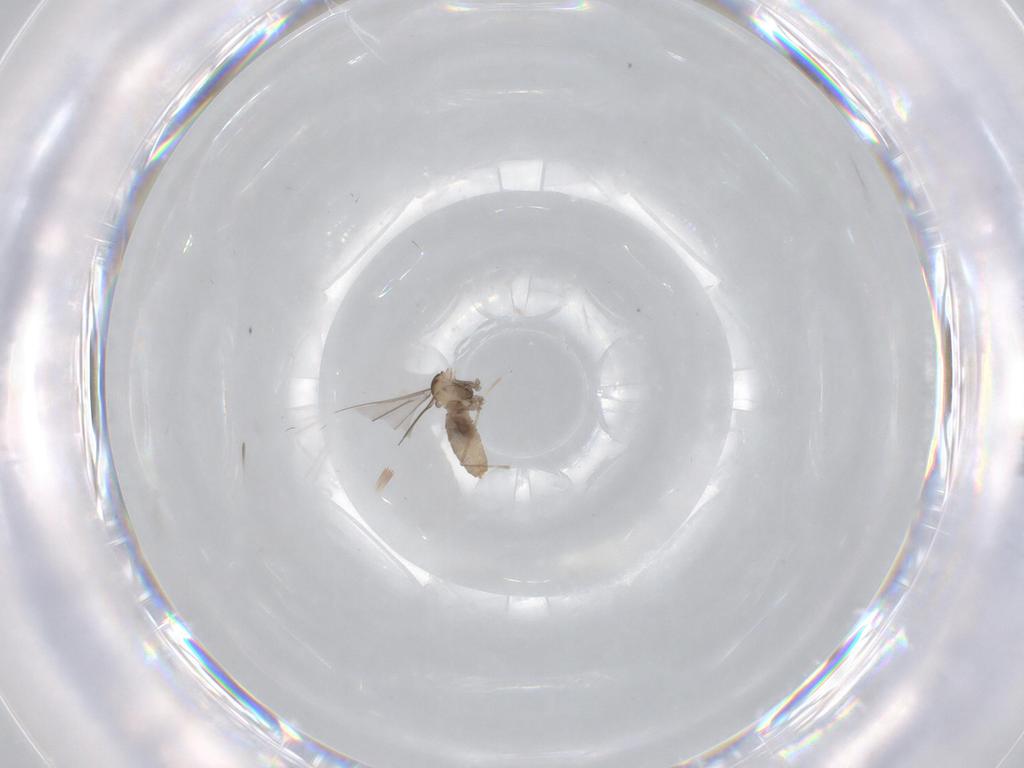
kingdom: Animalia
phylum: Arthropoda
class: Insecta
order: Diptera
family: Cecidomyiidae
